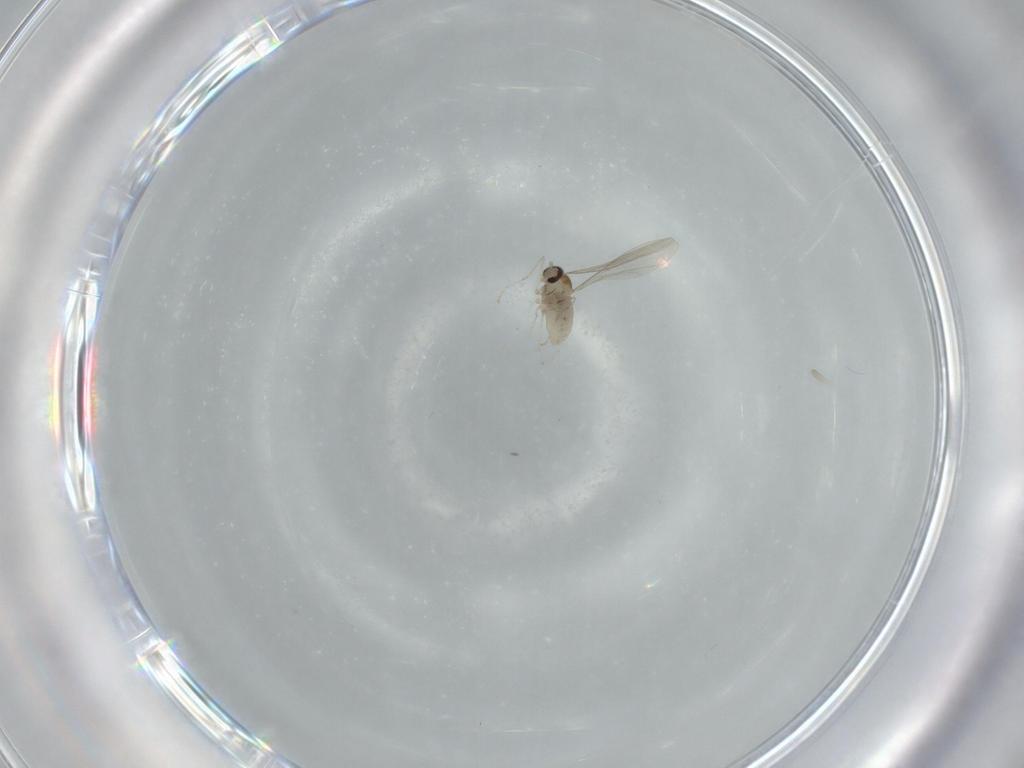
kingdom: Animalia
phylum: Arthropoda
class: Insecta
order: Diptera
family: Cecidomyiidae
